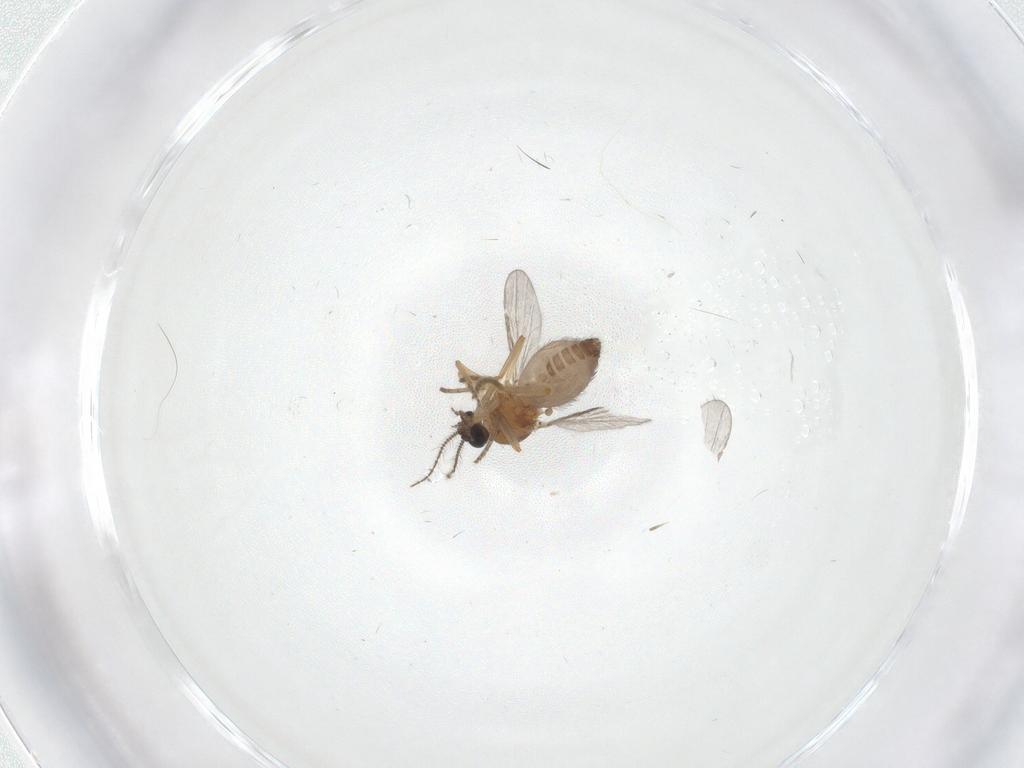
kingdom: Animalia
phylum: Arthropoda
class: Insecta
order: Diptera
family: Ceratopogonidae
